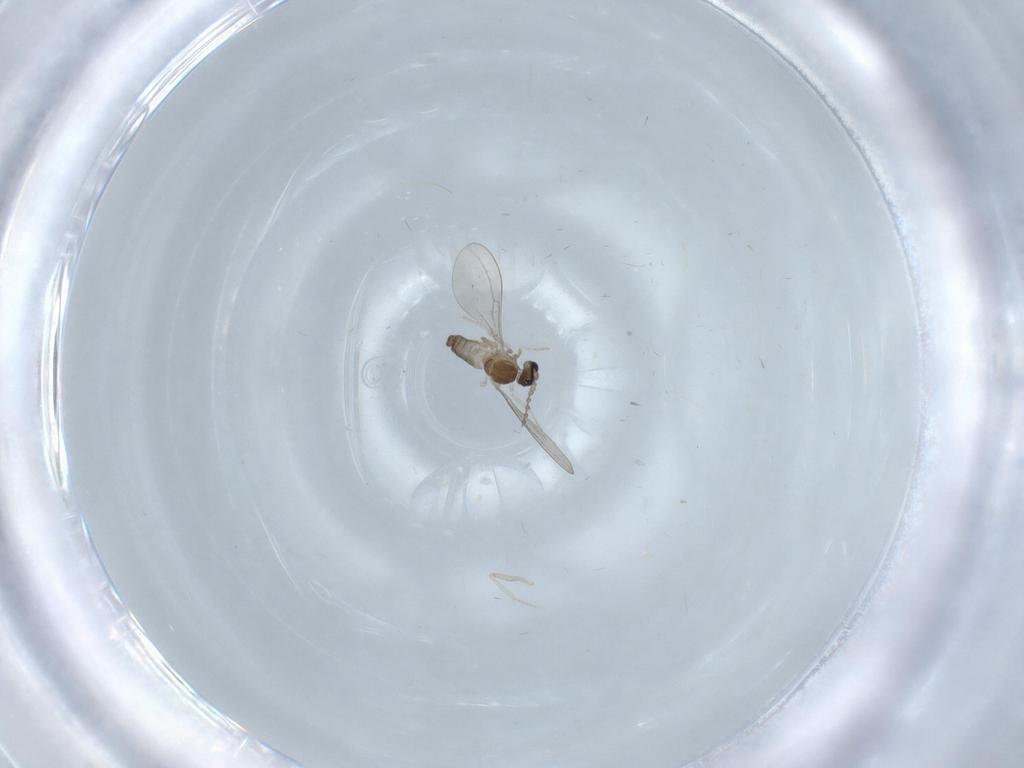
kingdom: Animalia
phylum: Arthropoda
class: Insecta
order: Diptera
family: Cecidomyiidae
